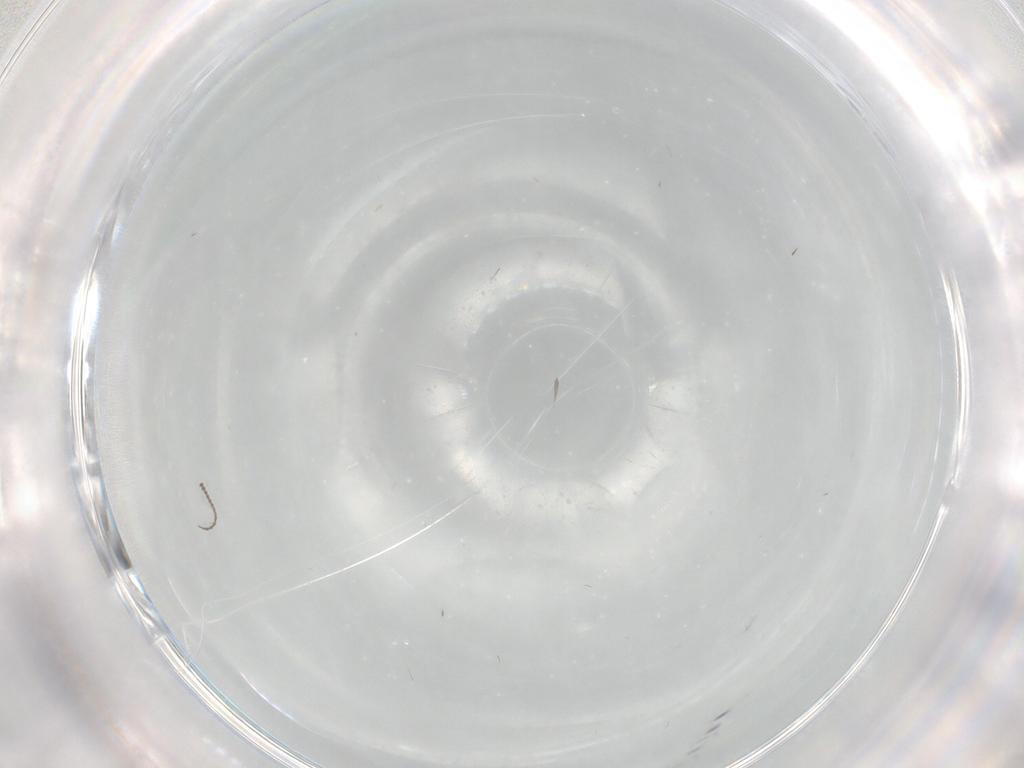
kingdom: Animalia
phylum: Arthropoda
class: Insecta
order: Diptera
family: Cecidomyiidae
